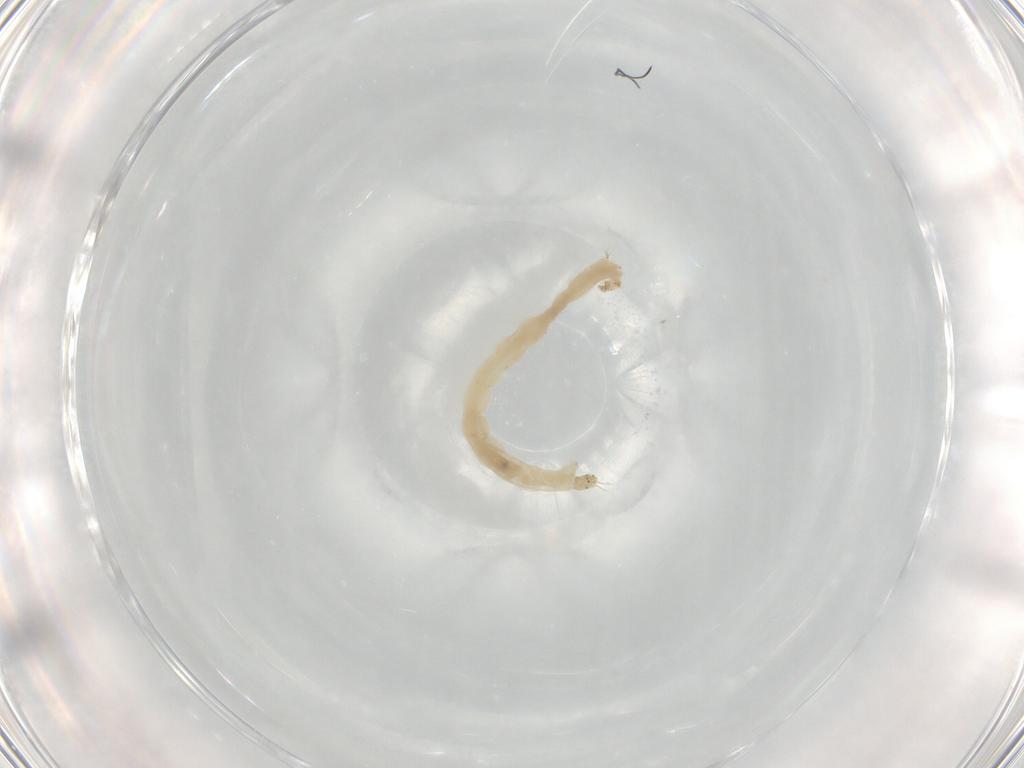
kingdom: Animalia
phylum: Arthropoda
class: Insecta
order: Diptera
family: Chironomidae
